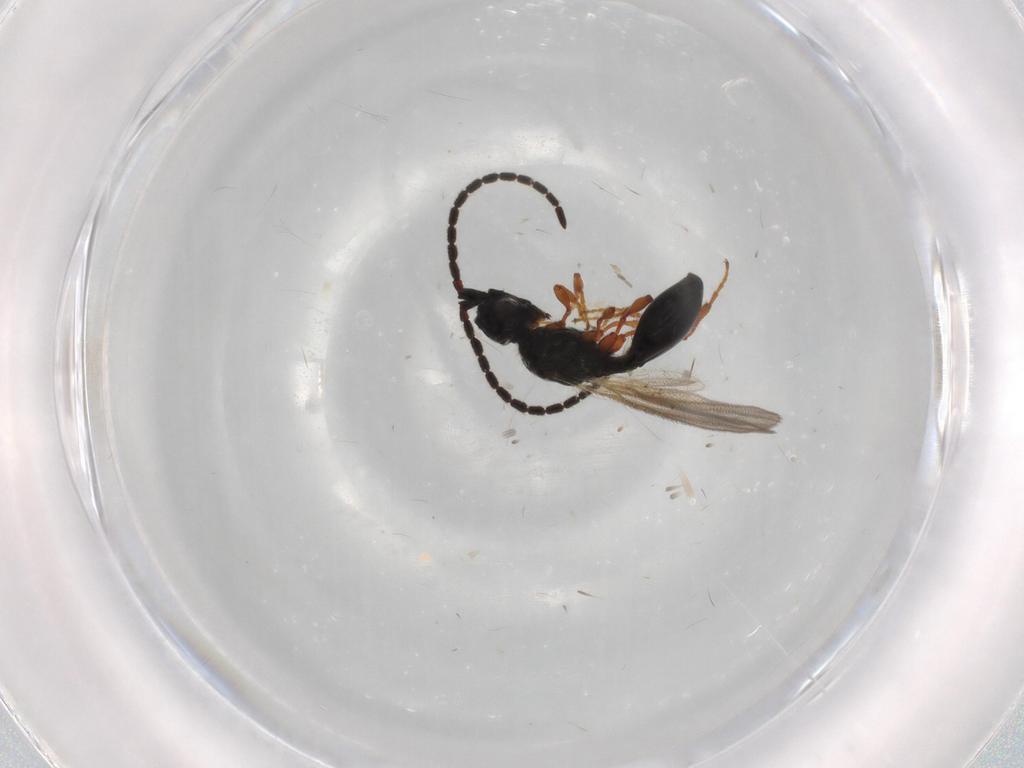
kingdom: Animalia
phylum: Arthropoda
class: Insecta
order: Hymenoptera
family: Diapriidae
